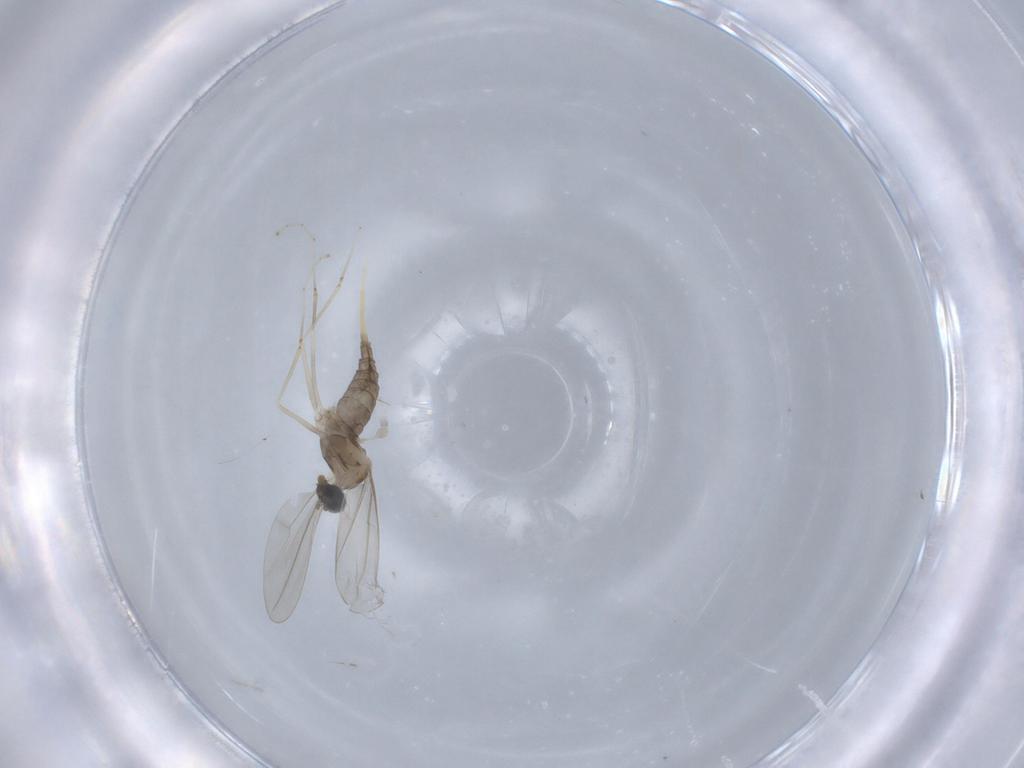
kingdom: Animalia
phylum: Arthropoda
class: Insecta
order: Diptera
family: Cecidomyiidae
